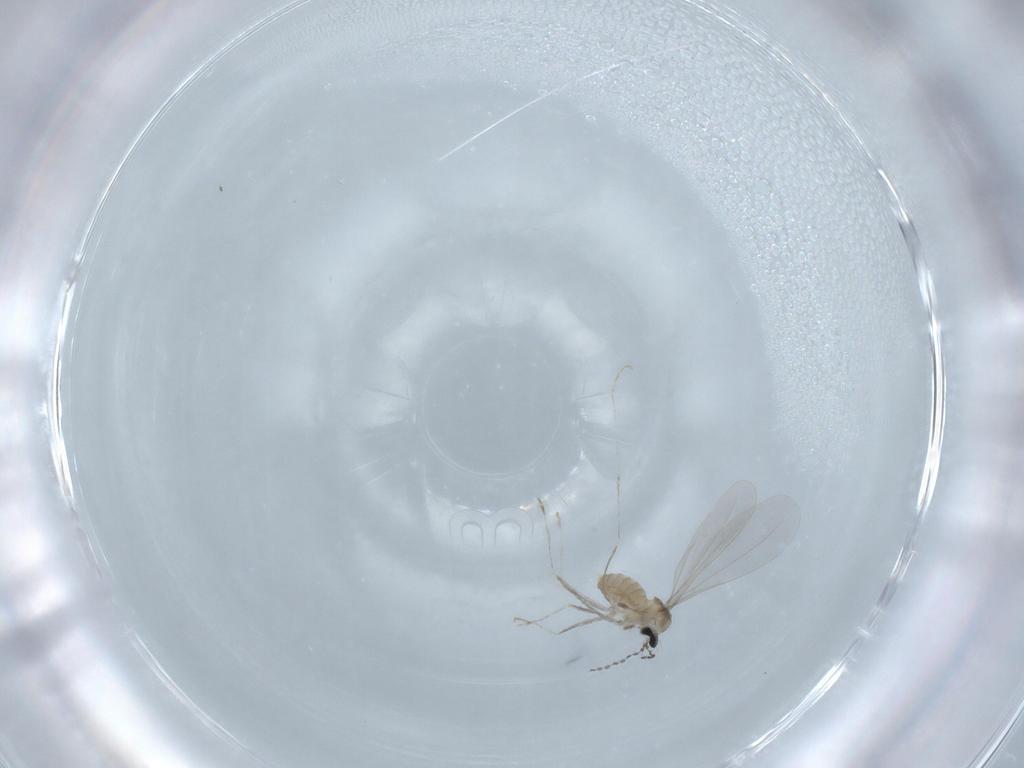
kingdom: Animalia
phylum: Arthropoda
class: Insecta
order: Diptera
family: Cecidomyiidae
